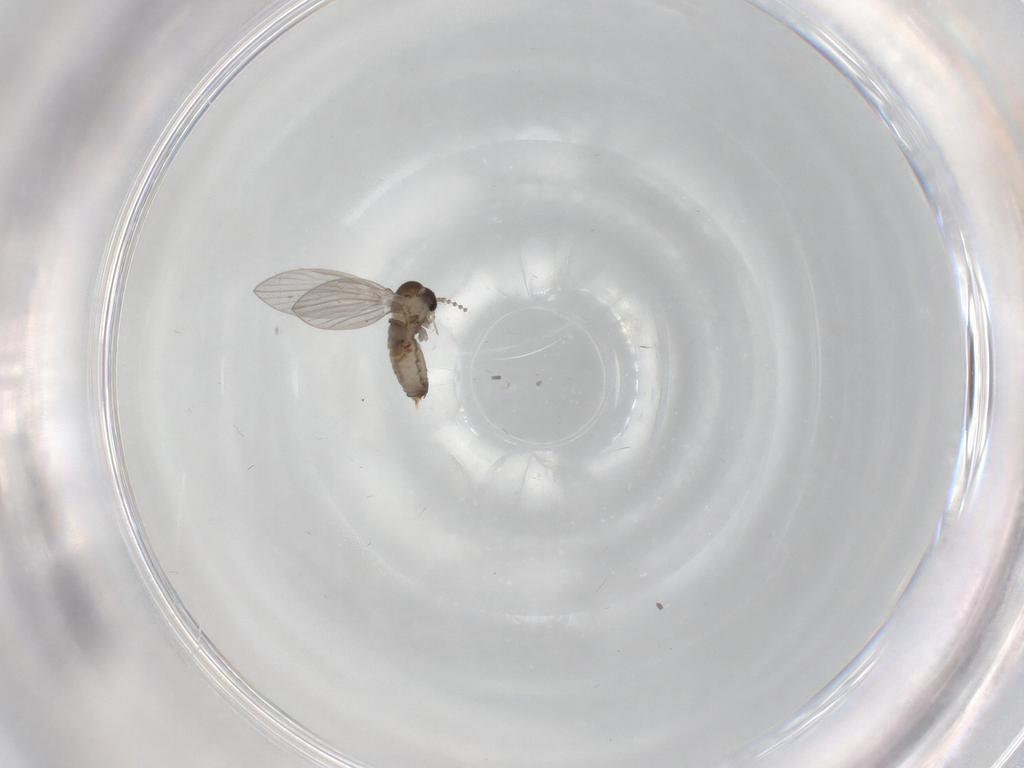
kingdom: Animalia
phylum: Arthropoda
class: Insecta
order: Diptera
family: Psychodidae
